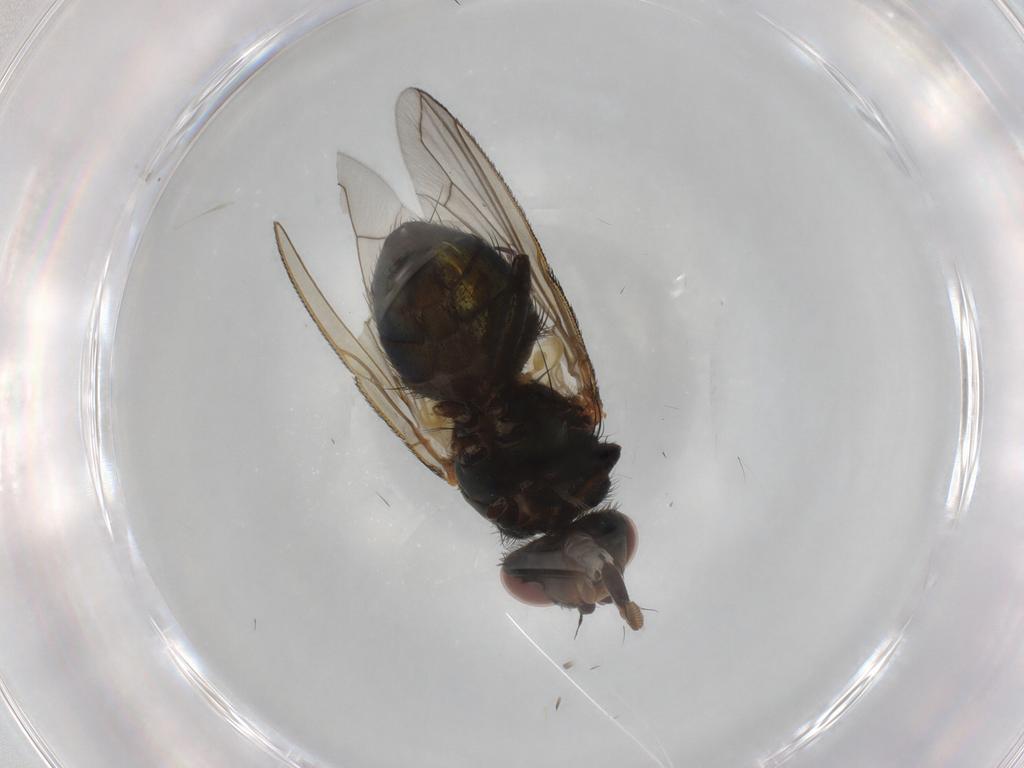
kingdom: Animalia
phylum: Arthropoda
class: Insecta
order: Diptera
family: Calliphoridae
